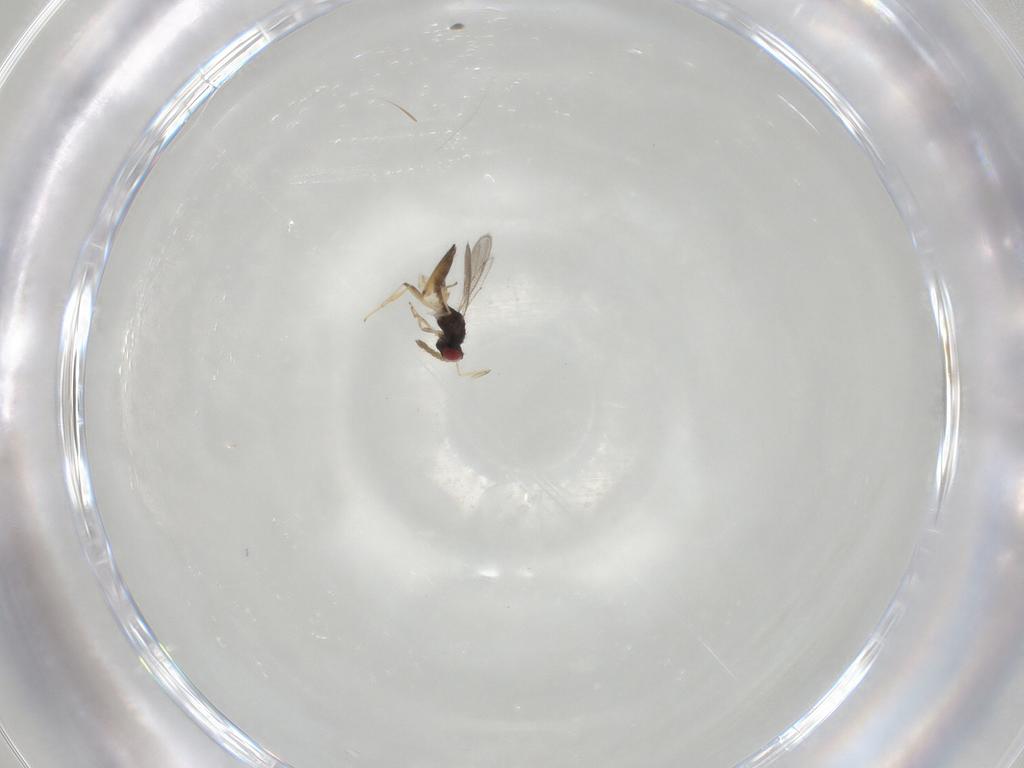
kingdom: Animalia
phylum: Arthropoda
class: Insecta
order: Hymenoptera
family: Eulophidae
